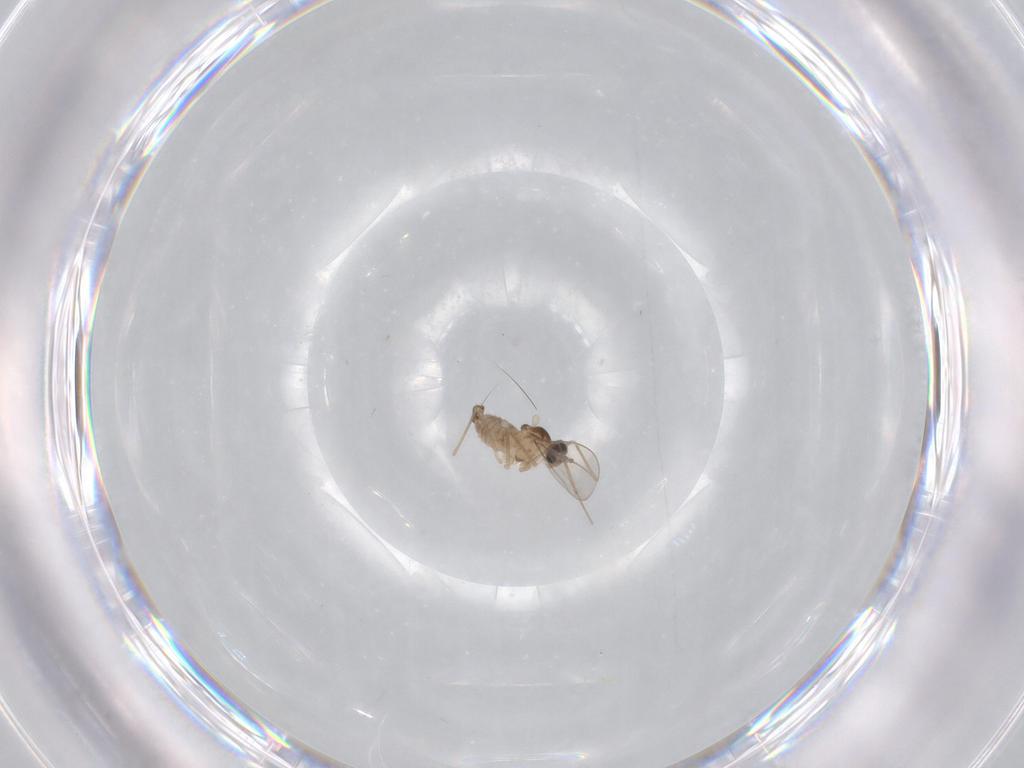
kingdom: Animalia
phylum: Arthropoda
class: Insecta
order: Diptera
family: Cecidomyiidae
